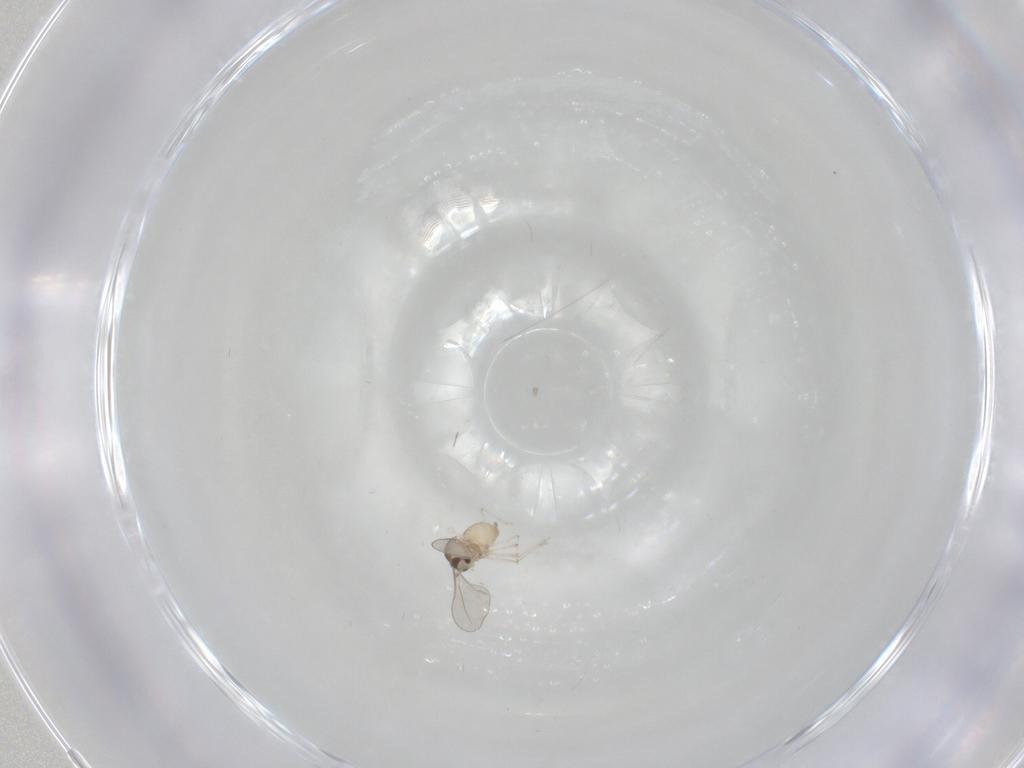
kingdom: Animalia
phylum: Arthropoda
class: Insecta
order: Diptera
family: Cecidomyiidae
